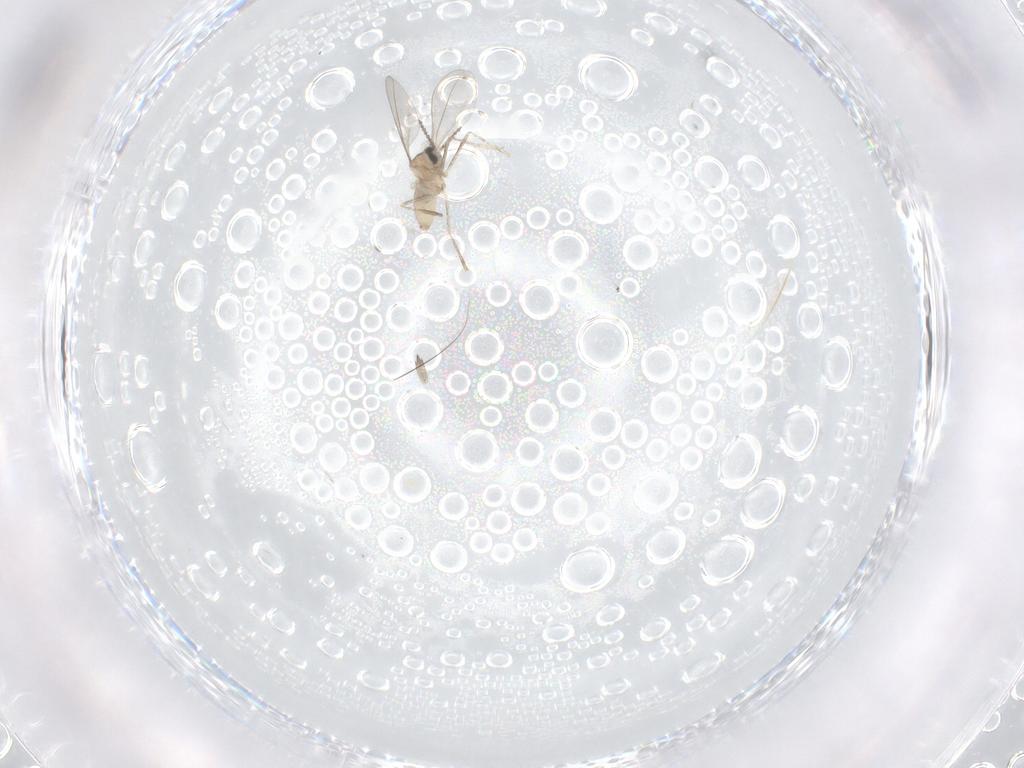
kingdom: Animalia
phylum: Arthropoda
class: Insecta
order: Diptera
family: Cecidomyiidae
